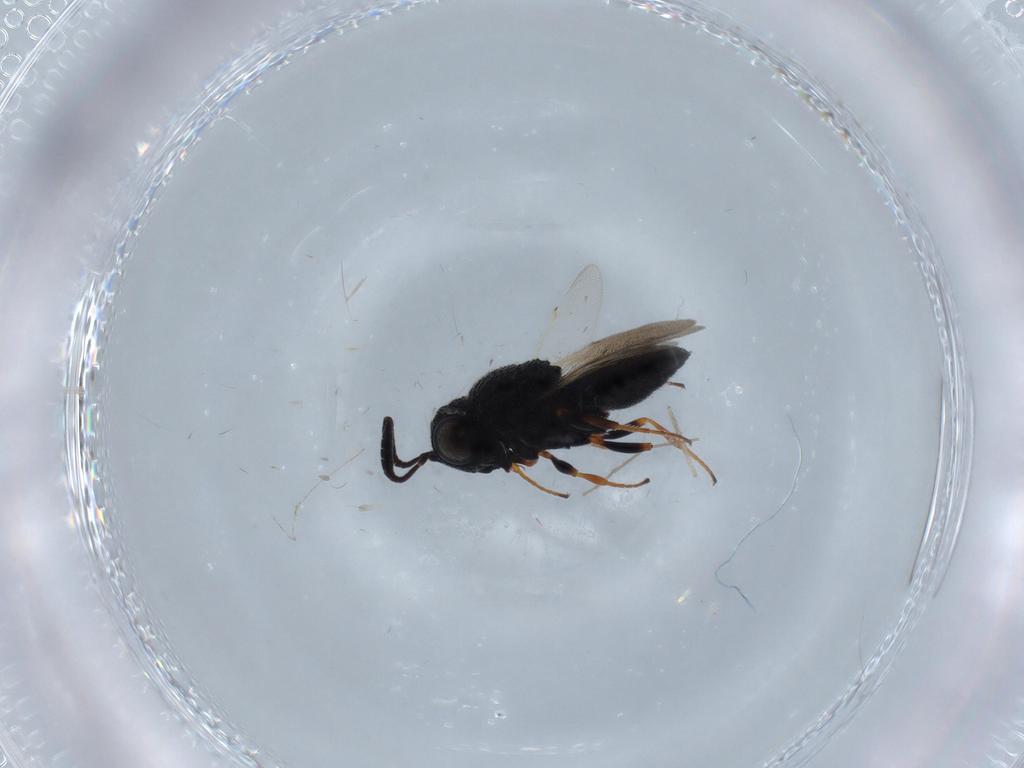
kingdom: Animalia
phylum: Arthropoda
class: Insecta
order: Hymenoptera
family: Scelionidae
